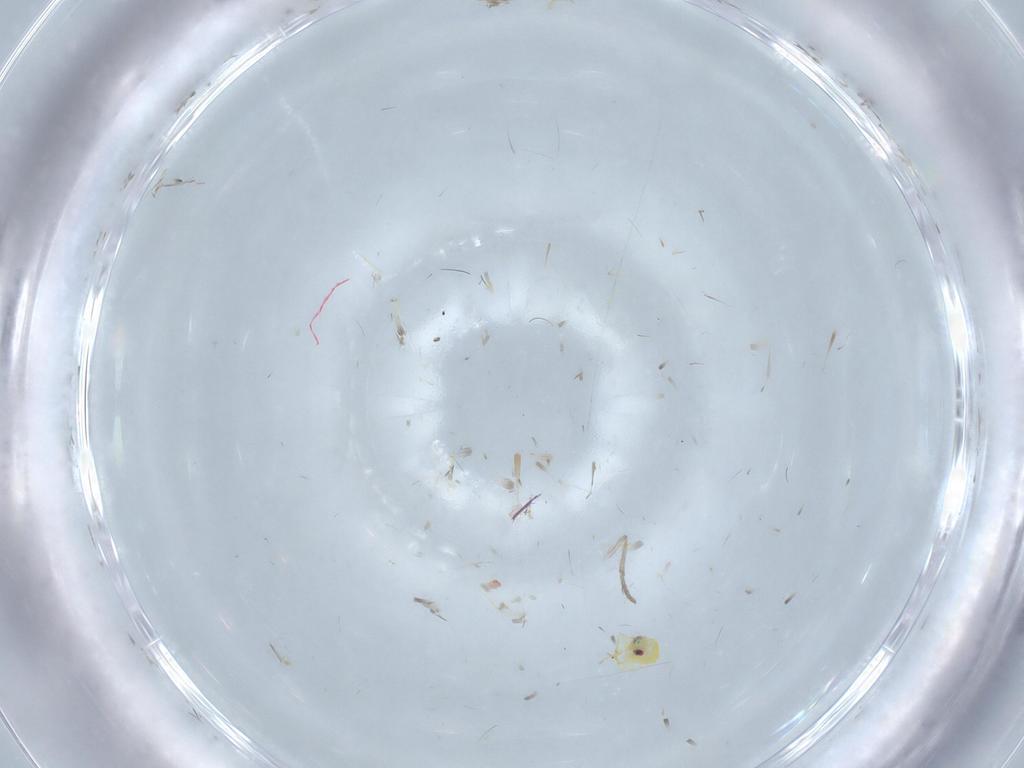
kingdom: Animalia
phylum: Arthropoda
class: Insecta
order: Hemiptera
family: Aleyrodidae
